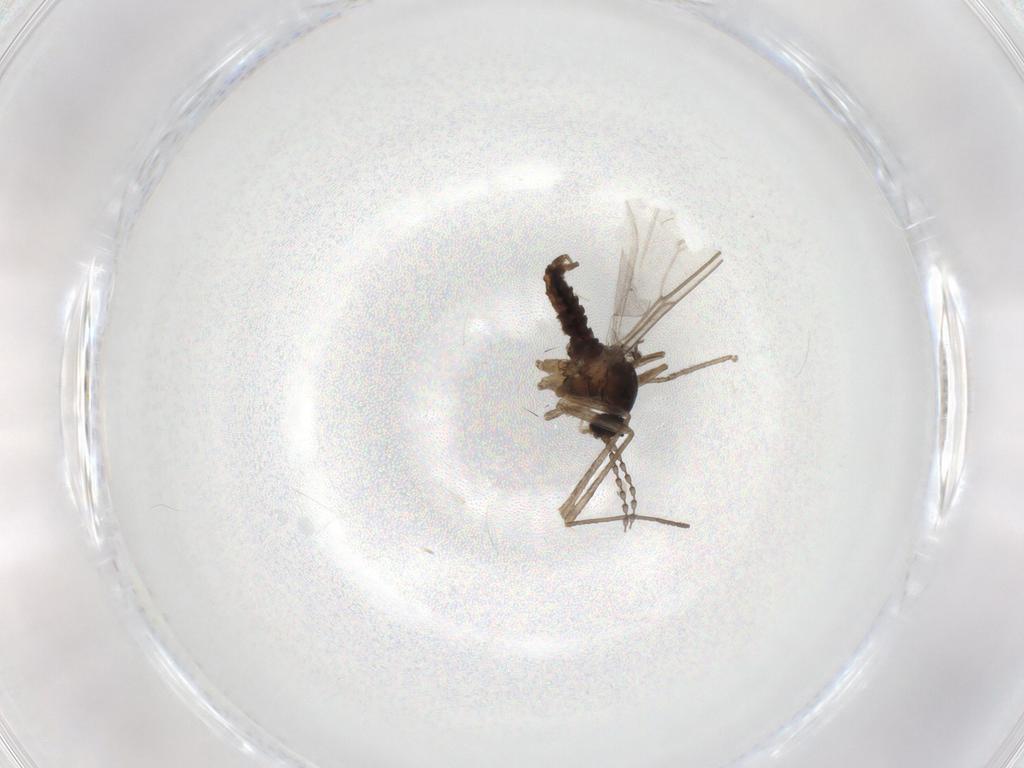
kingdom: Animalia
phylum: Arthropoda
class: Insecta
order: Diptera
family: Cecidomyiidae
